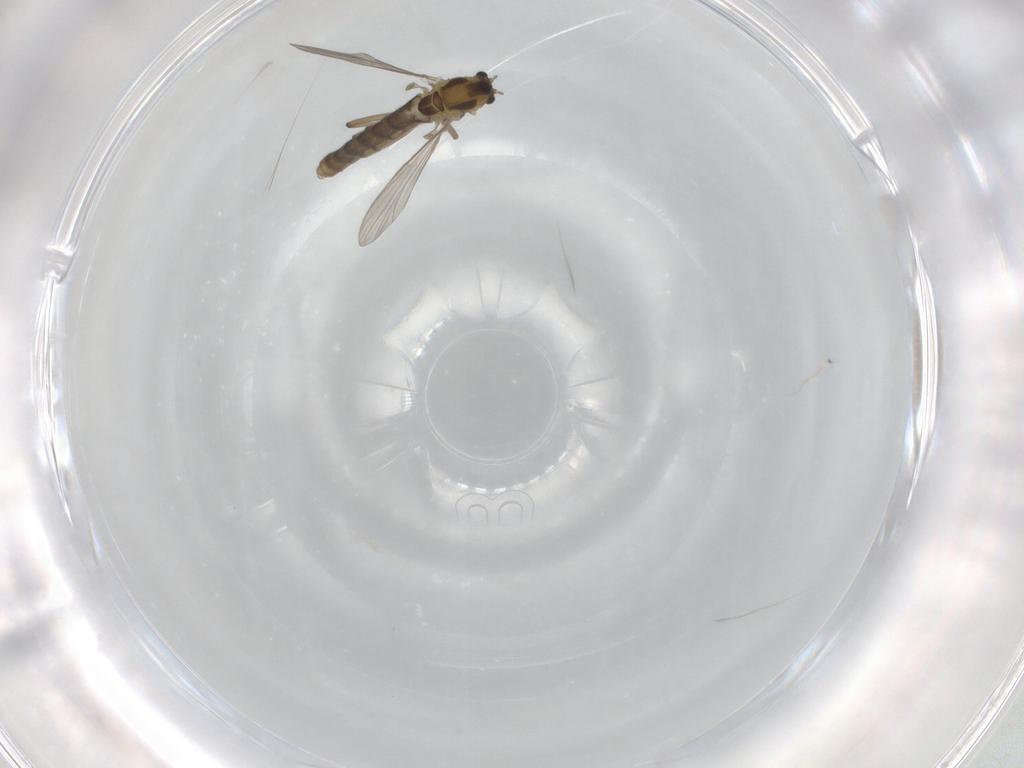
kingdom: Animalia
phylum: Arthropoda
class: Insecta
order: Diptera
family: Chironomidae
